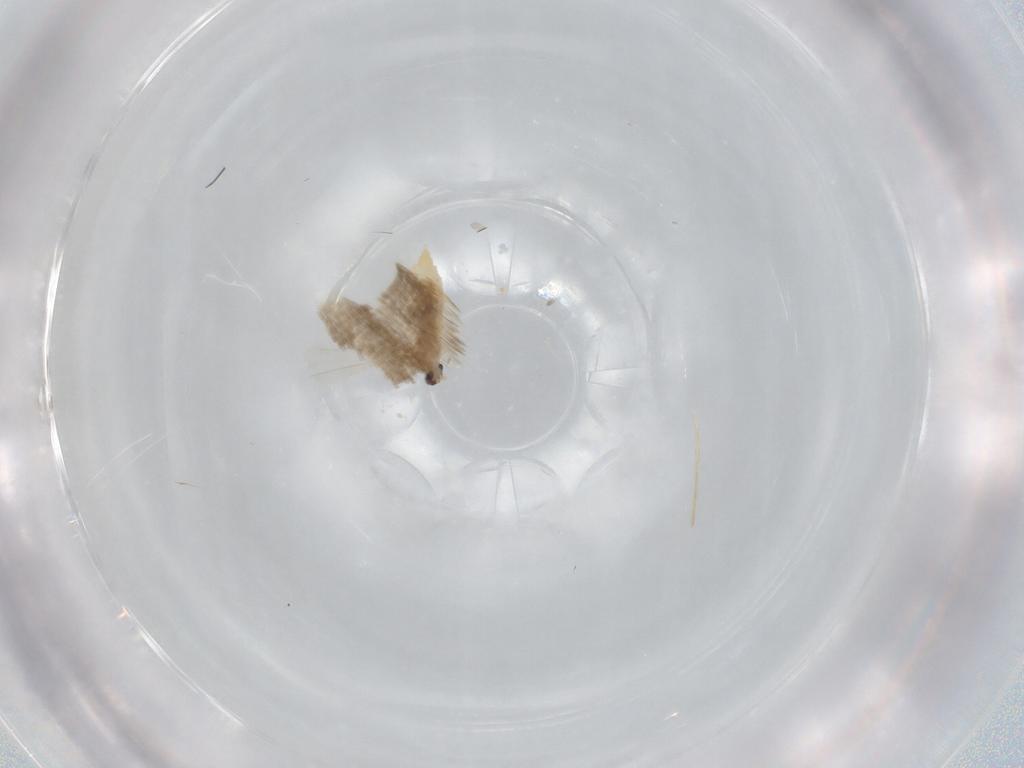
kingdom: Animalia
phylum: Arthropoda
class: Insecta
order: Diptera
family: Cecidomyiidae
